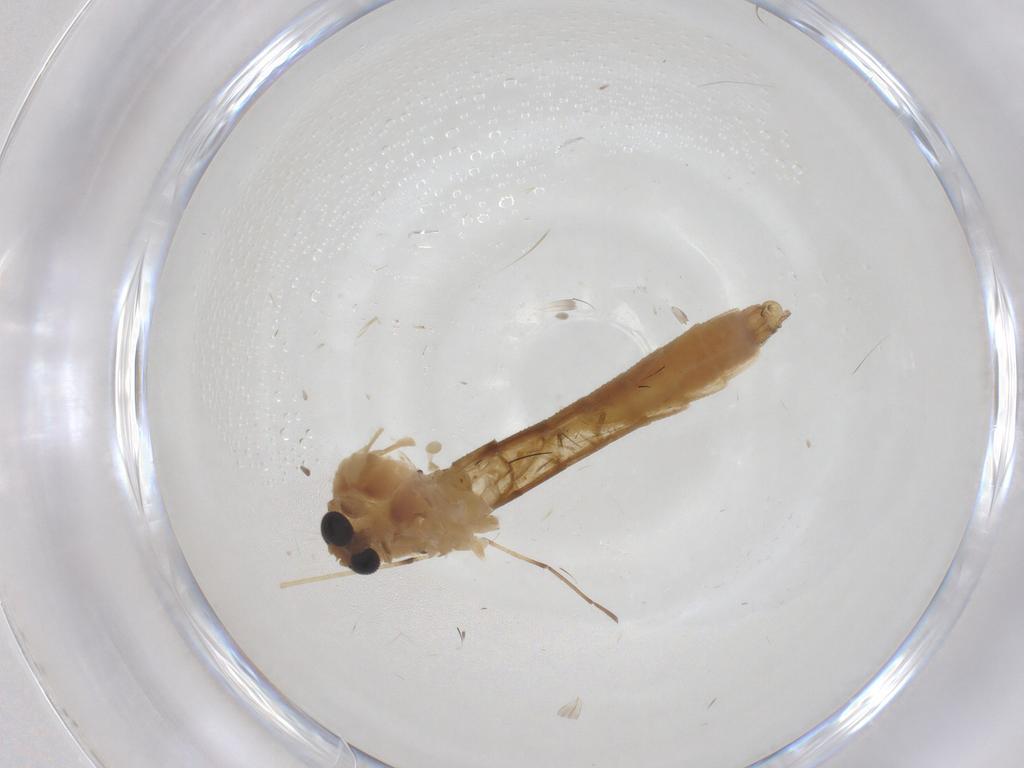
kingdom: Animalia
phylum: Arthropoda
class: Insecta
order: Diptera
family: Chironomidae
